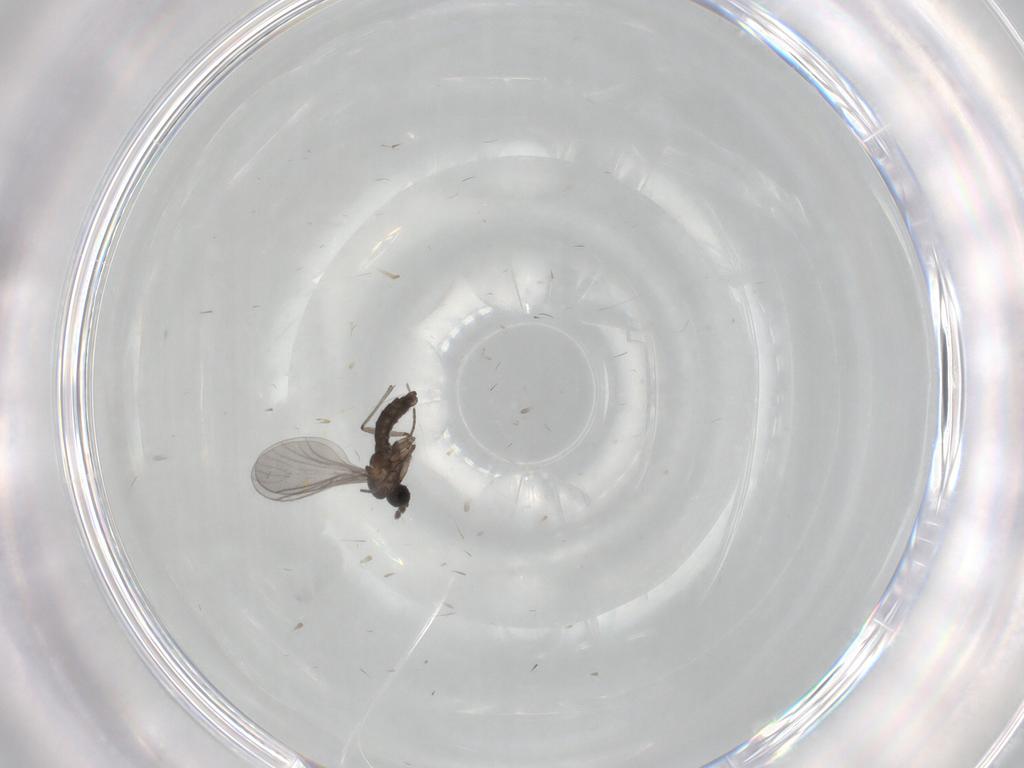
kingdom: Animalia
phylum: Arthropoda
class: Insecta
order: Diptera
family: Sciaridae
